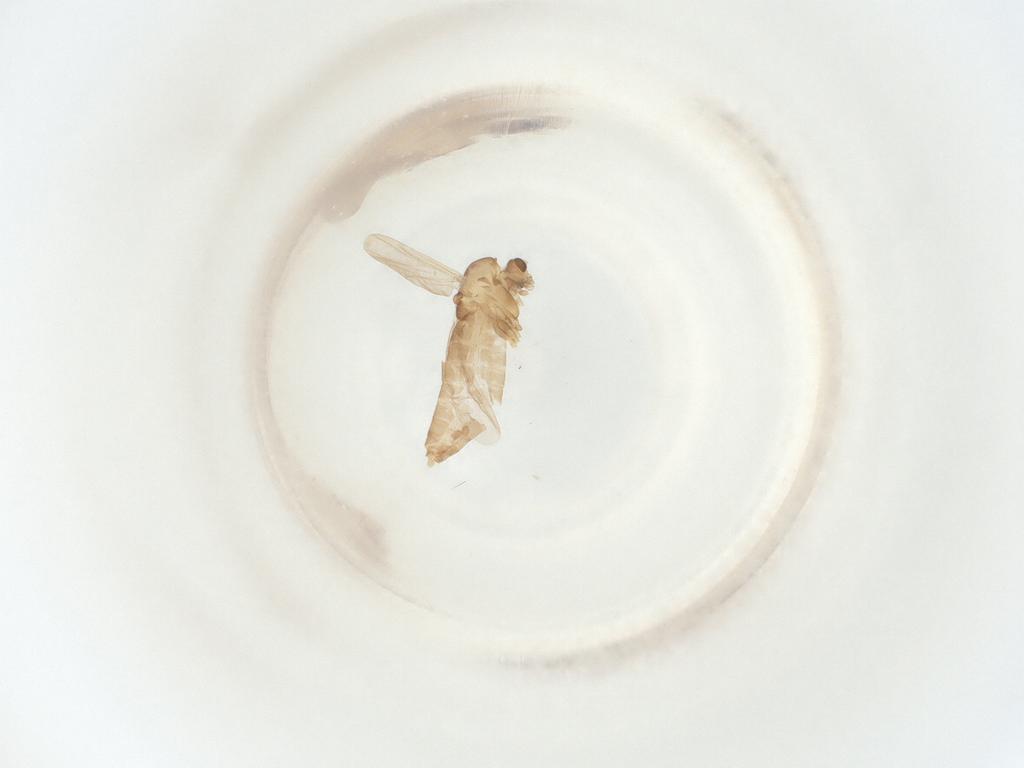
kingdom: Animalia
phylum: Arthropoda
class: Insecta
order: Diptera
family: Chironomidae
